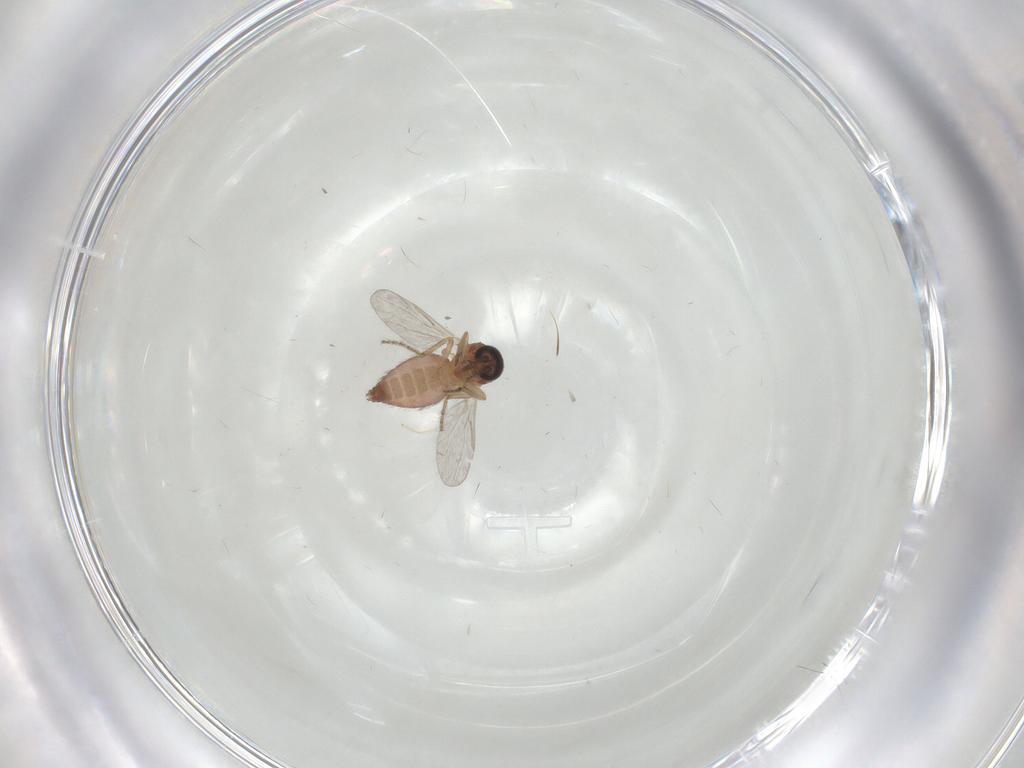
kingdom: Animalia
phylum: Arthropoda
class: Insecta
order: Diptera
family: Ceratopogonidae
